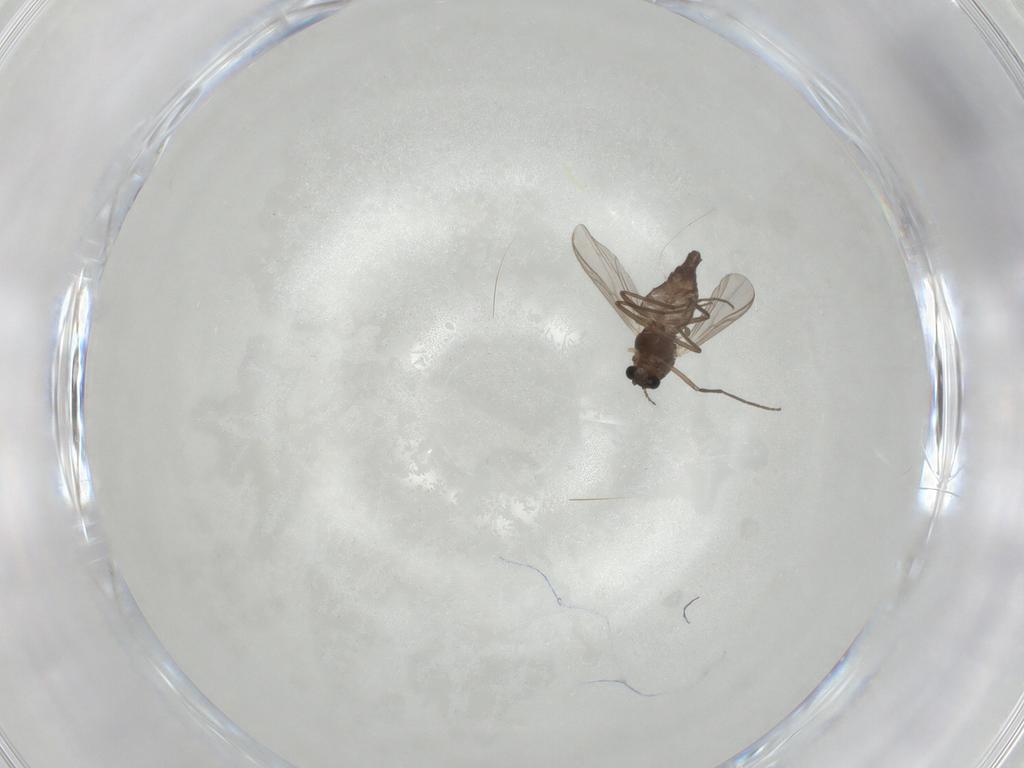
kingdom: Animalia
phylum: Arthropoda
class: Insecta
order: Diptera
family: Chironomidae
